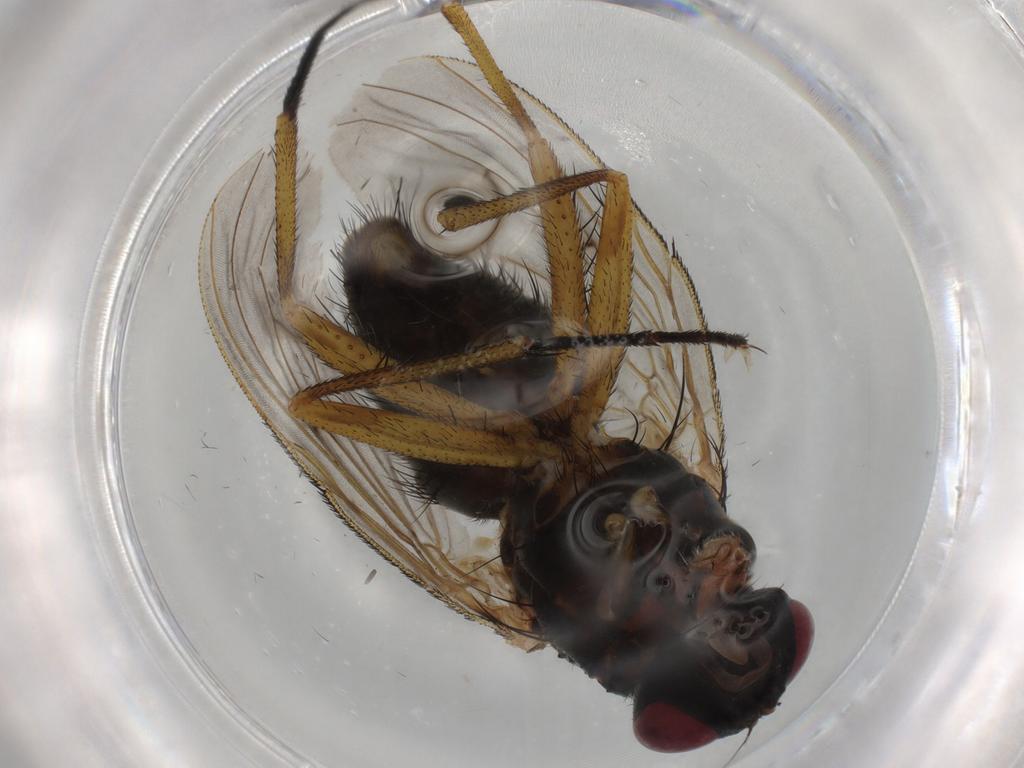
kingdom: Animalia
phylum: Arthropoda
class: Insecta
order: Diptera
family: Muscidae
